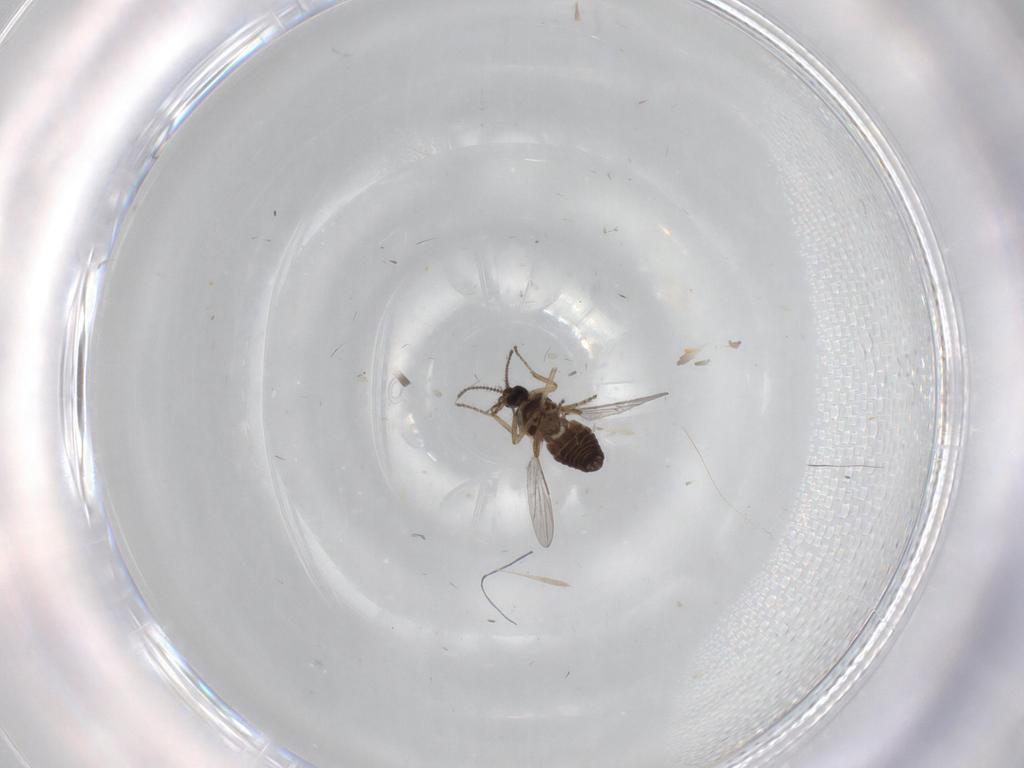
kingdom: Animalia
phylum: Arthropoda
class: Insecta
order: Diptera
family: Ceratopogonidae
